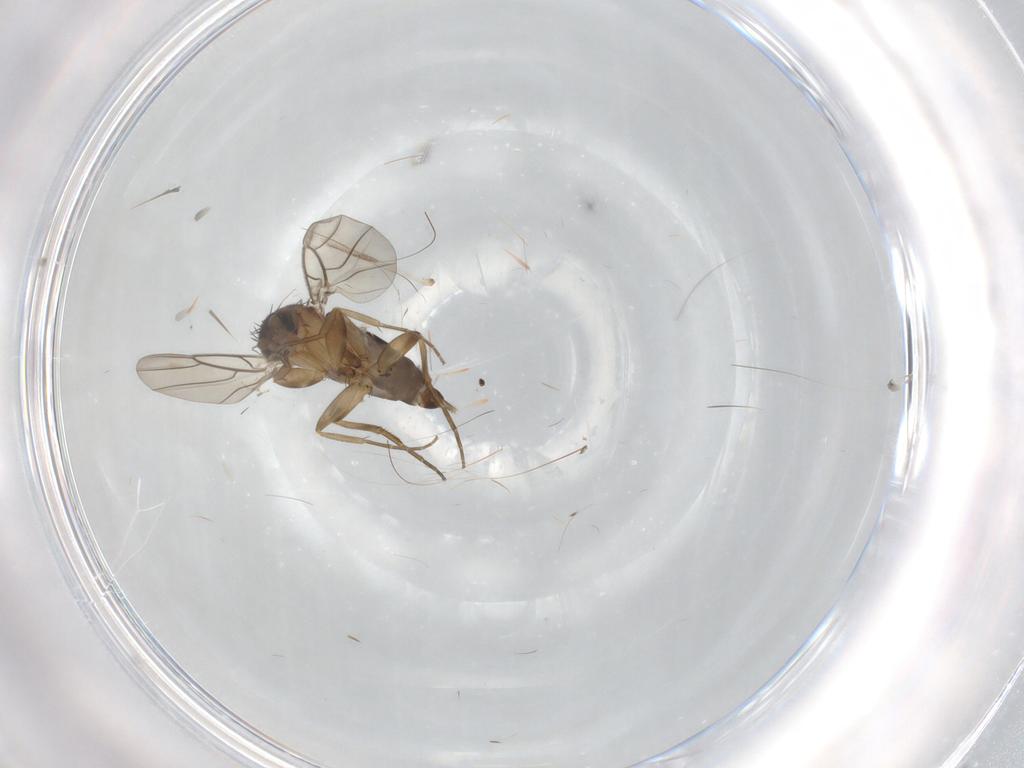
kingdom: Animalia
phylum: Arthropoda
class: Insecta
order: Diptera
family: Phoridae
